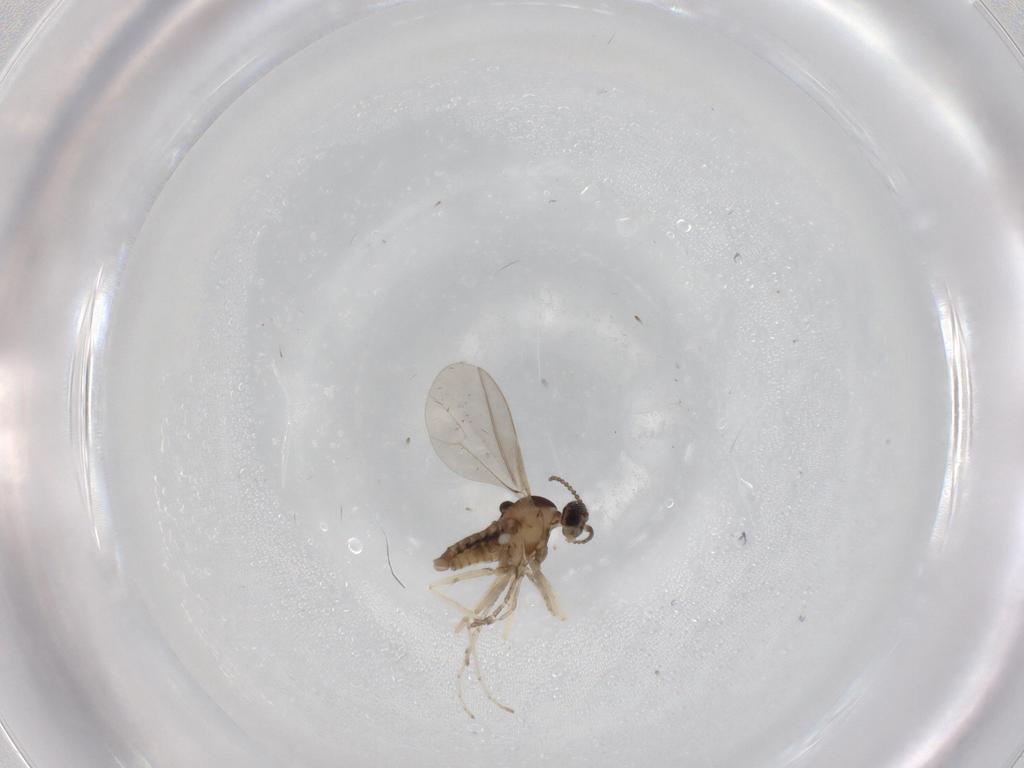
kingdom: Animalia
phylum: Arthropoda
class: Insecta
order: Diptera
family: Cecidomyiidae
